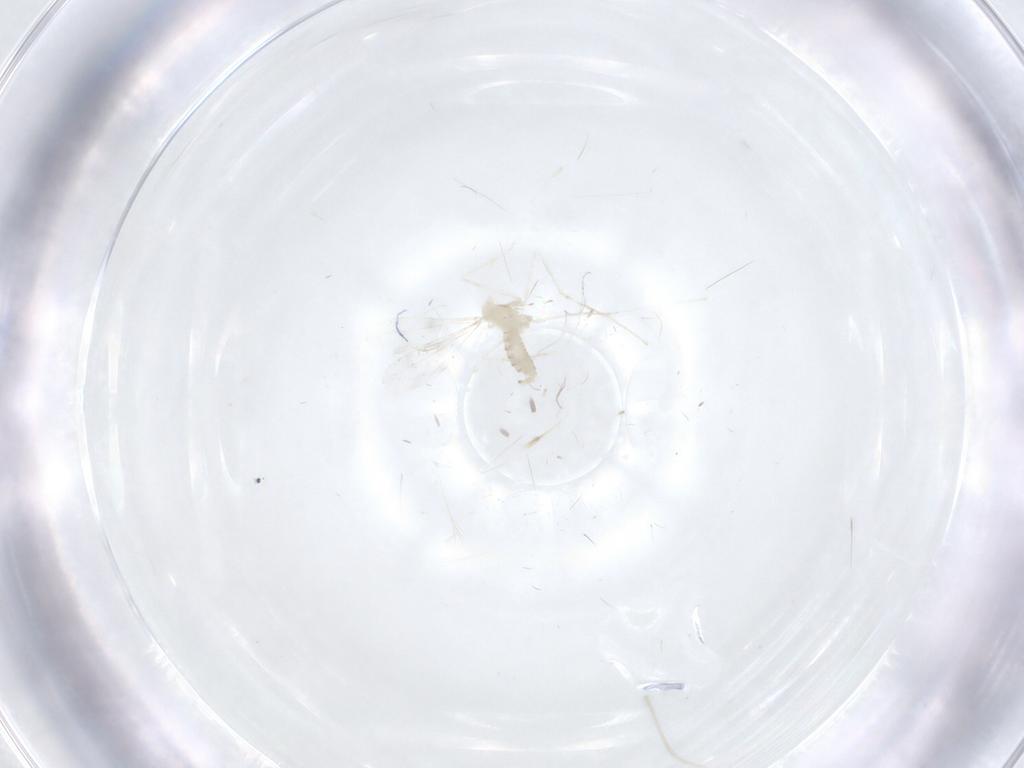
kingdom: Animalia
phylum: Arthropoda
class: Insecta
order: Diptera
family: Cecidomyiidae
